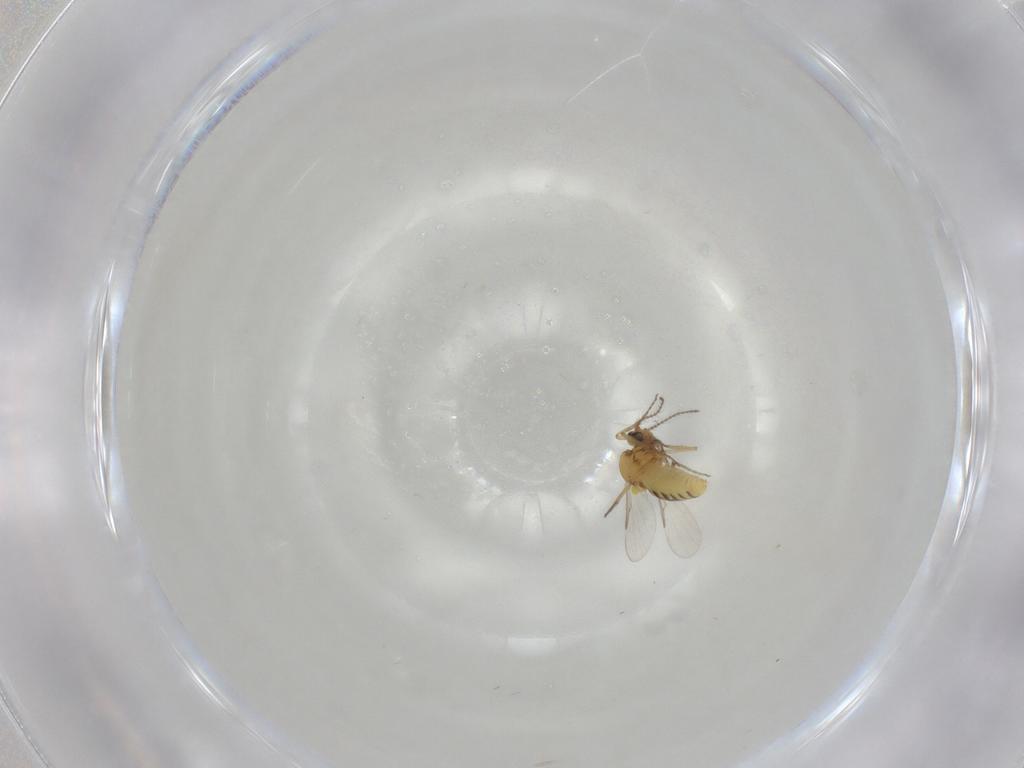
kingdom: Animalia
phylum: Arthropoda
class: Insecta
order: Diptera
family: Ceratopogonidae
